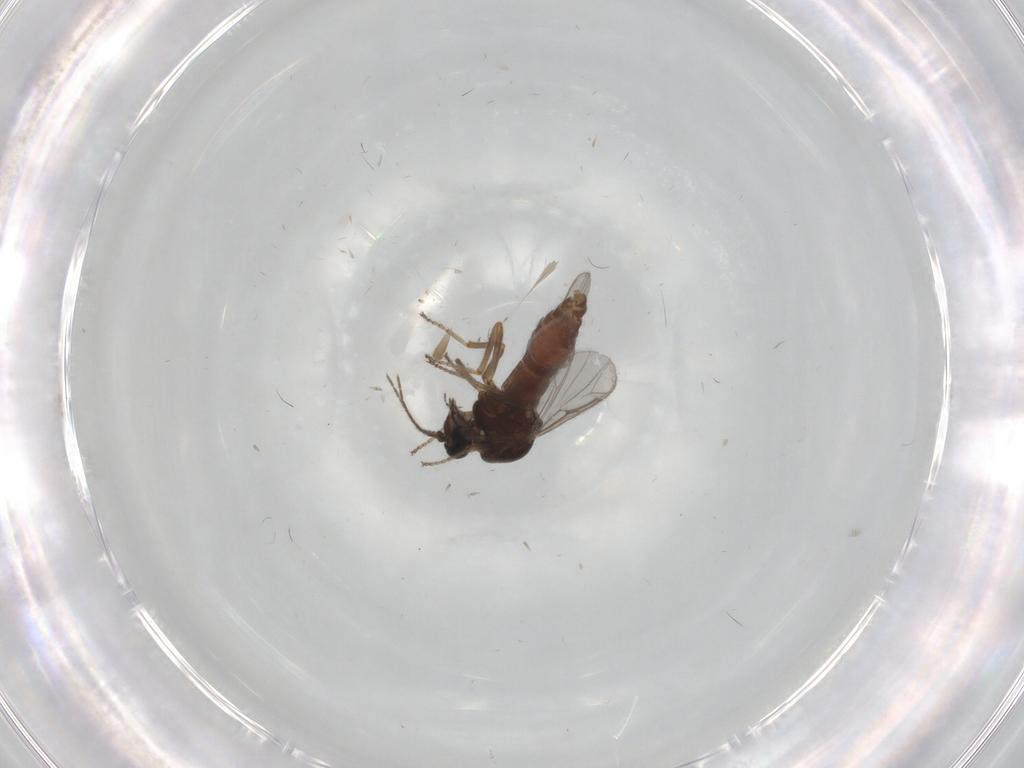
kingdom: Animalia
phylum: Arthropoda
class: Insecta
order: Diptera
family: Ceratopogonidae
